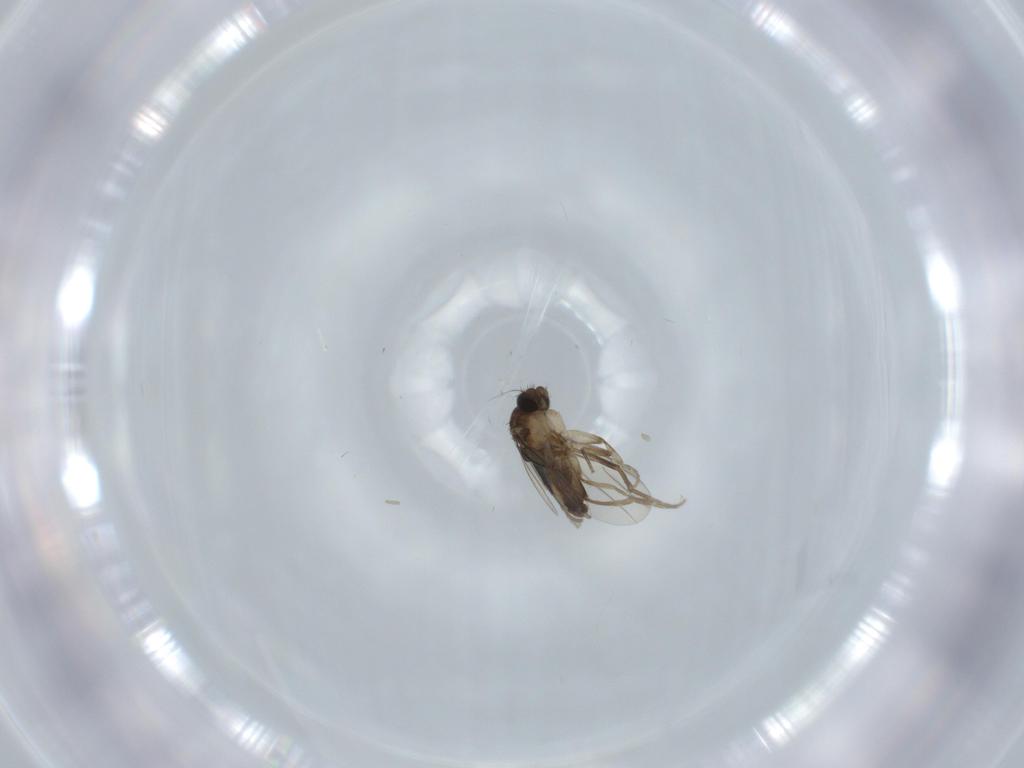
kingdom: Animalia
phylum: Arthropoda
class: Insecta
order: Diptera
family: Phoridae
